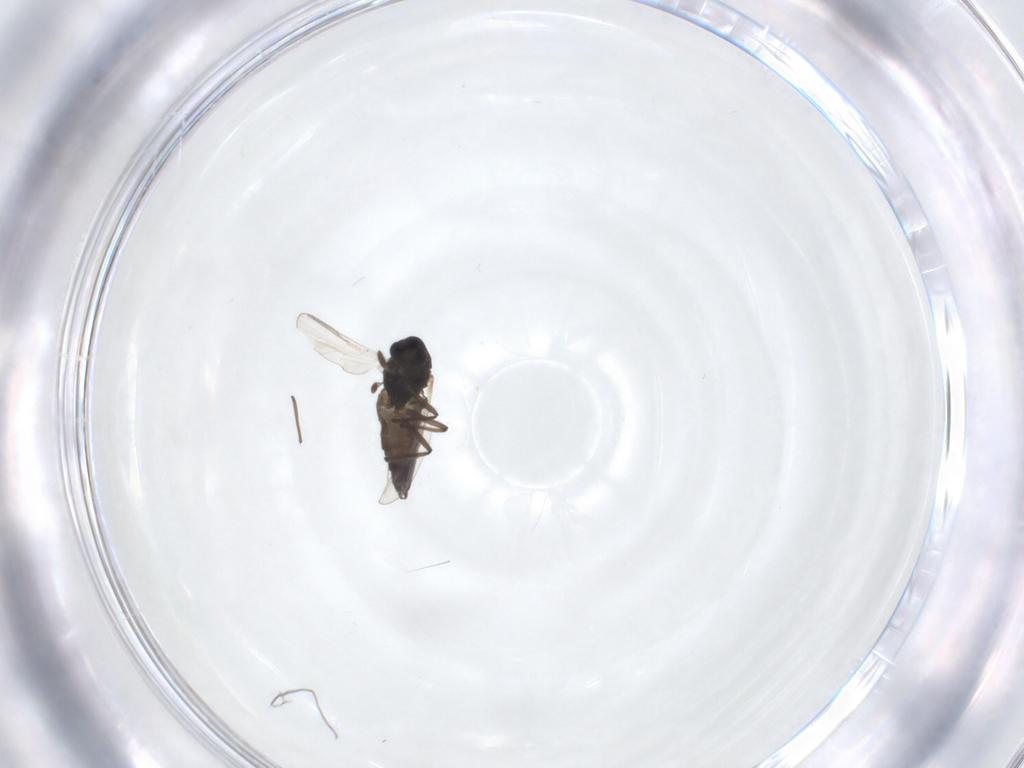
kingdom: Animalia
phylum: Arthropoda
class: Insecta
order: Diptera
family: Chironomidae
